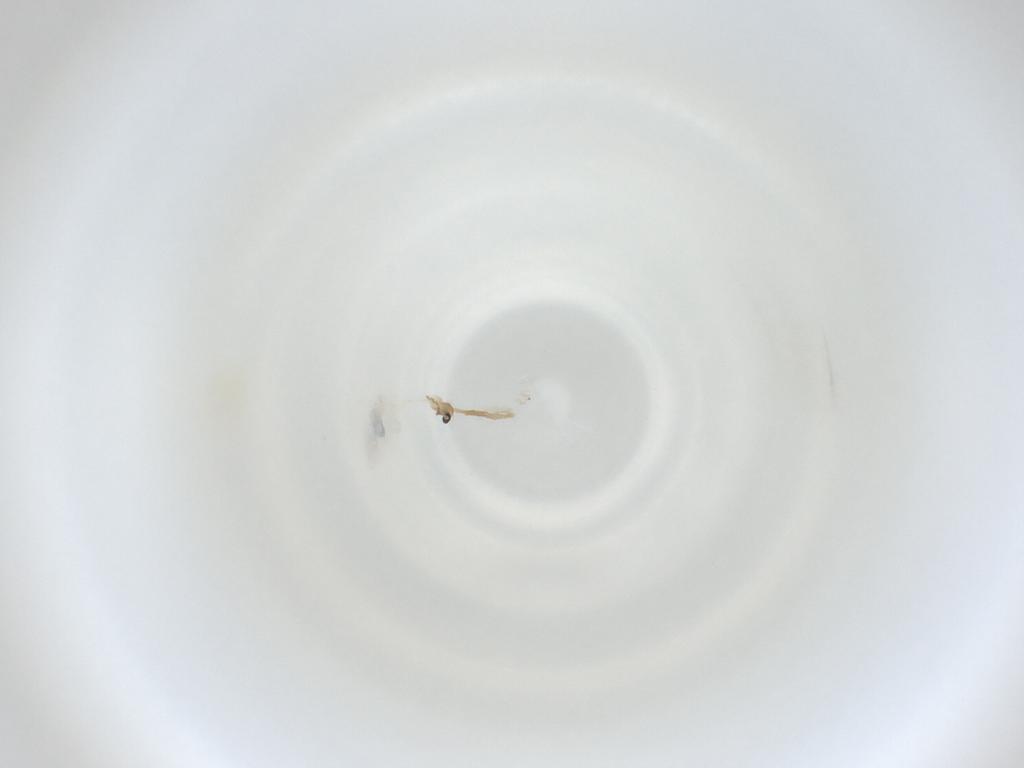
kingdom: Animalia
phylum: Arthropoda
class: Insecta
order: Diptera
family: Cecidomyiidae
